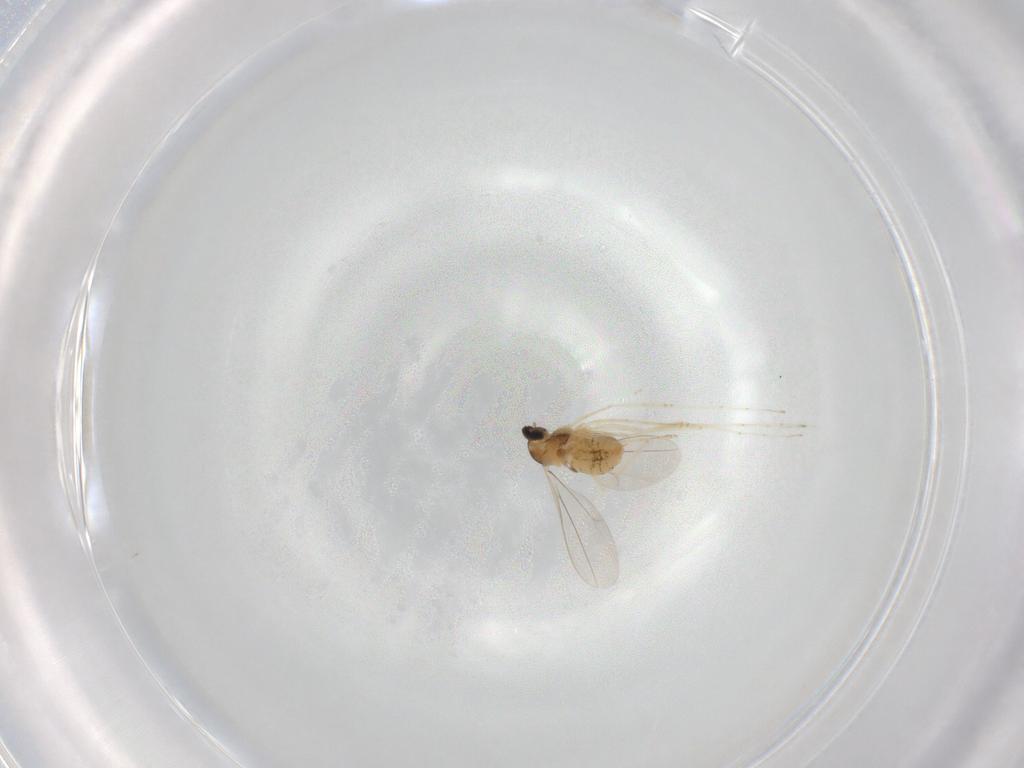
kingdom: Animalia
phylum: Arthropoda
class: Insecta
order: Diptera
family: Cecidomyiidae
